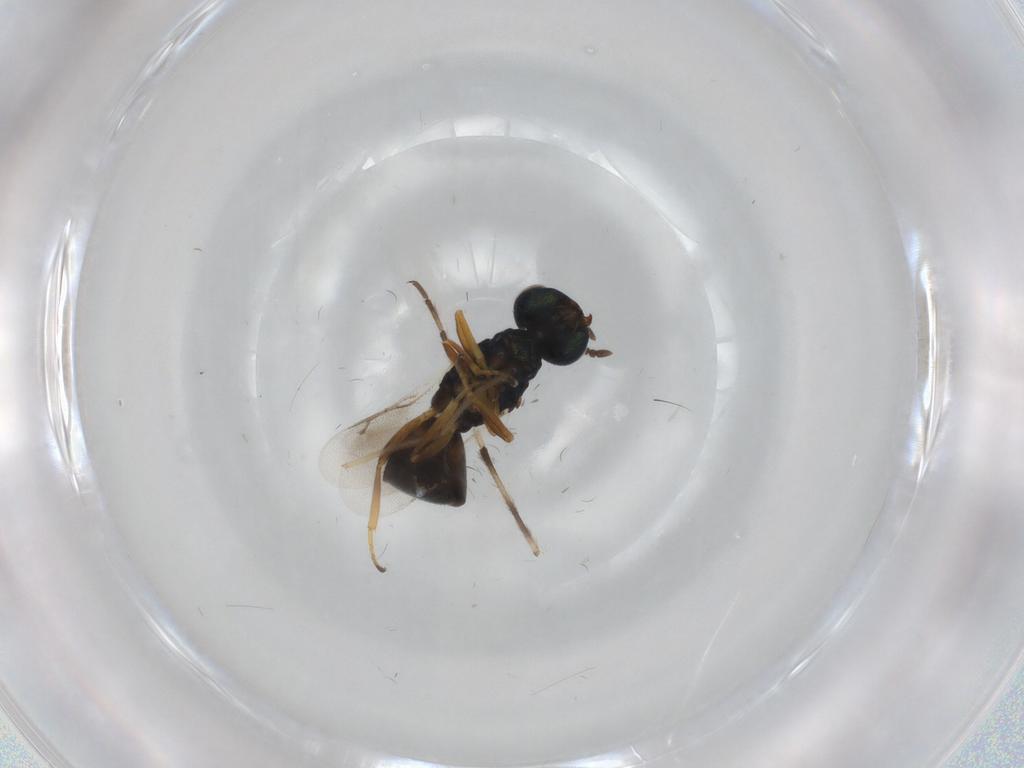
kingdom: Animalia
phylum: Arthropoda
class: Insecta
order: Hymenoptera
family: Pteromalidae
